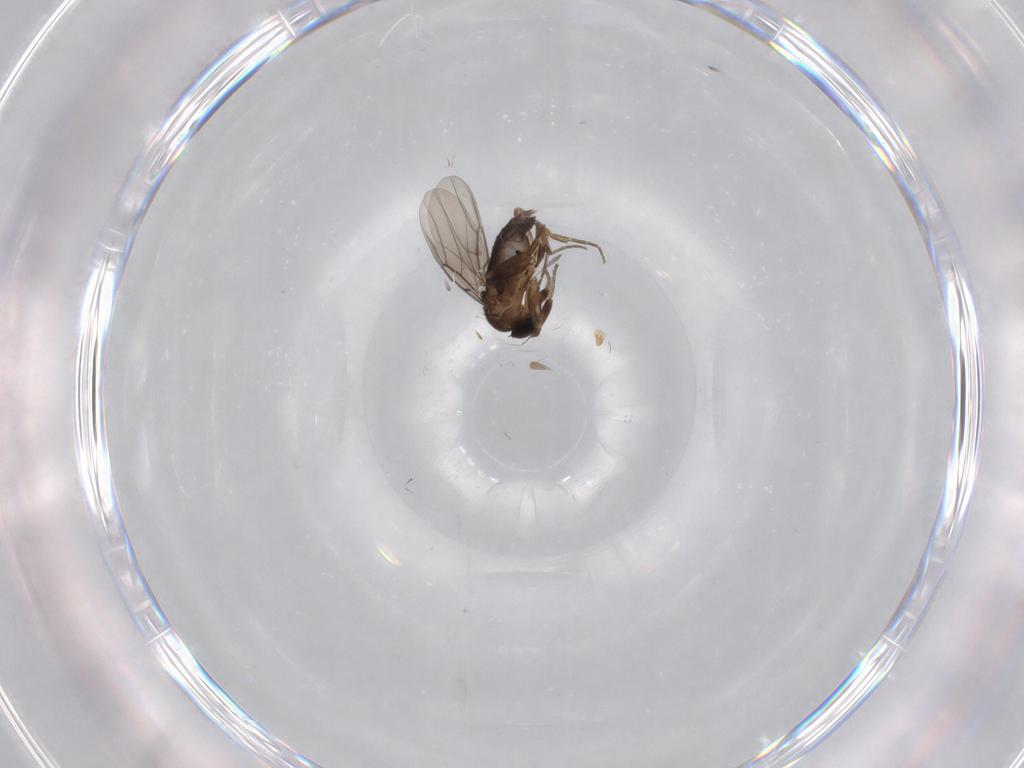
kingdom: Animalia
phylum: Arthropoda
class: Insecta
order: Diptera
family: Phoridae
